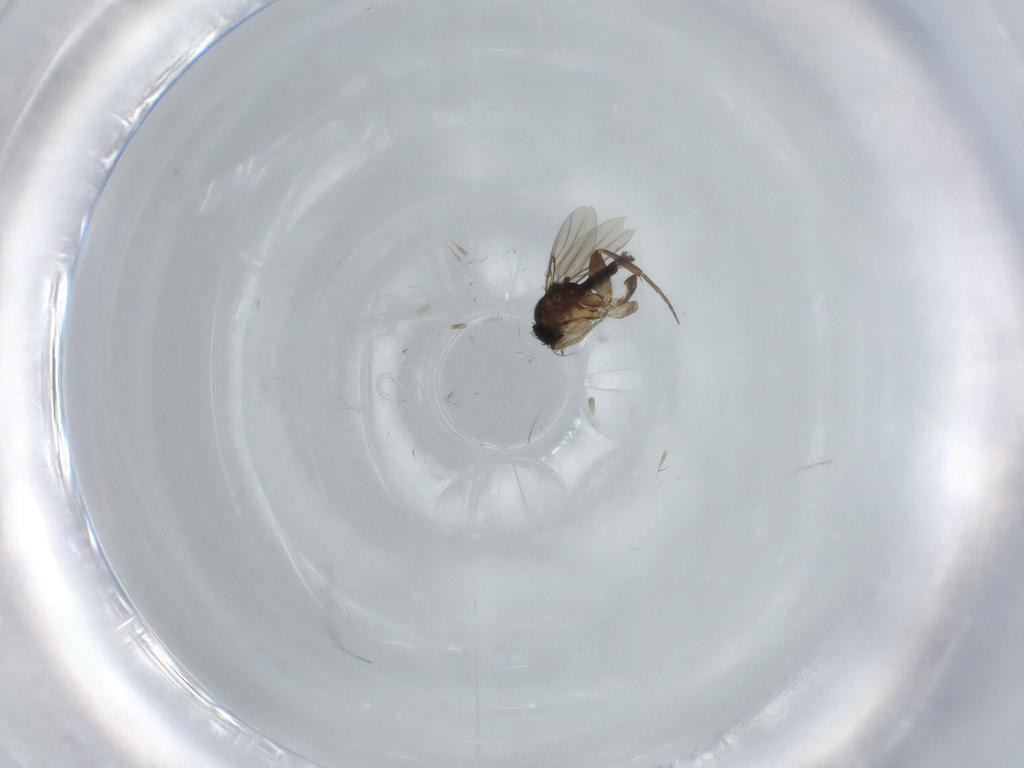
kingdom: Animalia
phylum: Arthropoda
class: Insecta
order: Diptera
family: Phoridae
